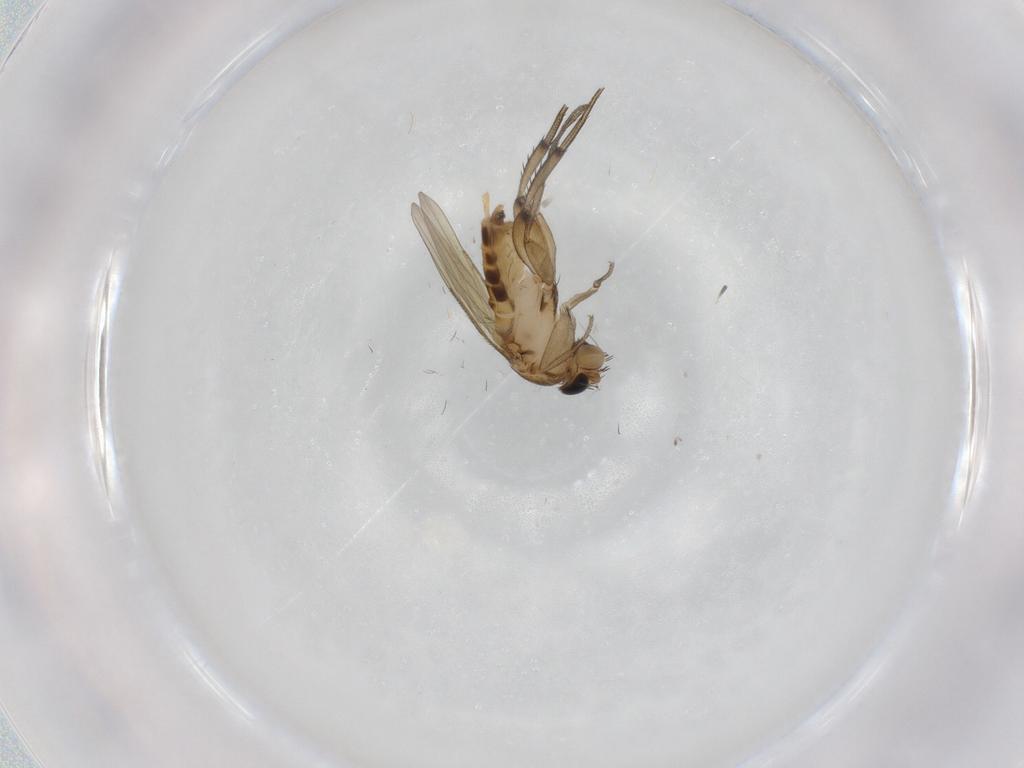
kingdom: Animalia
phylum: Arthropoda
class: Insecta
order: Diptera
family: Phoridae
